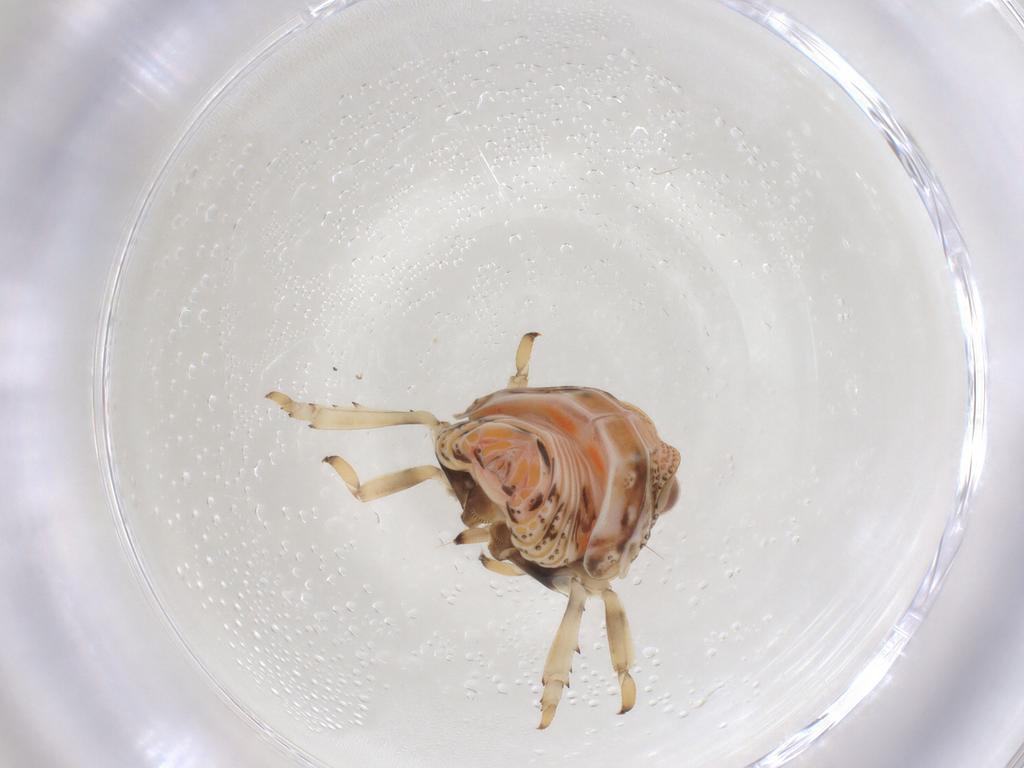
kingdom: Animalia
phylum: Arthropoda
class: Insecta
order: Hemiptera
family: Nogodinidae
